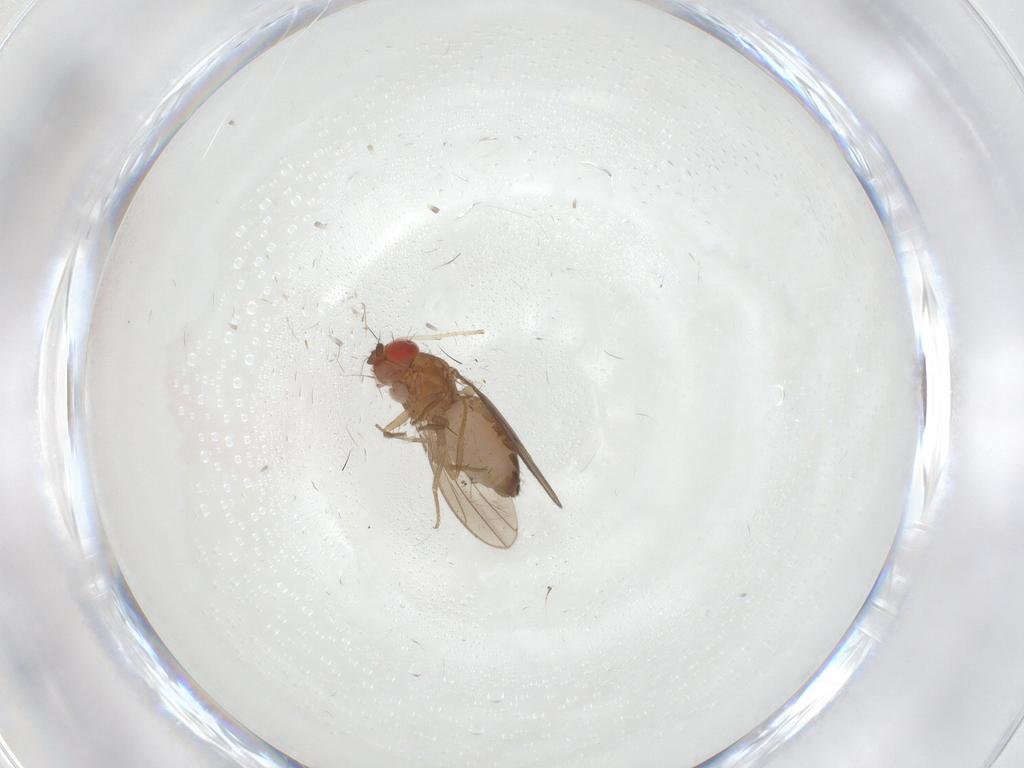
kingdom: Animalia
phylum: Arthropoda
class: Insecta
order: Diptera
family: Drosophilidae
